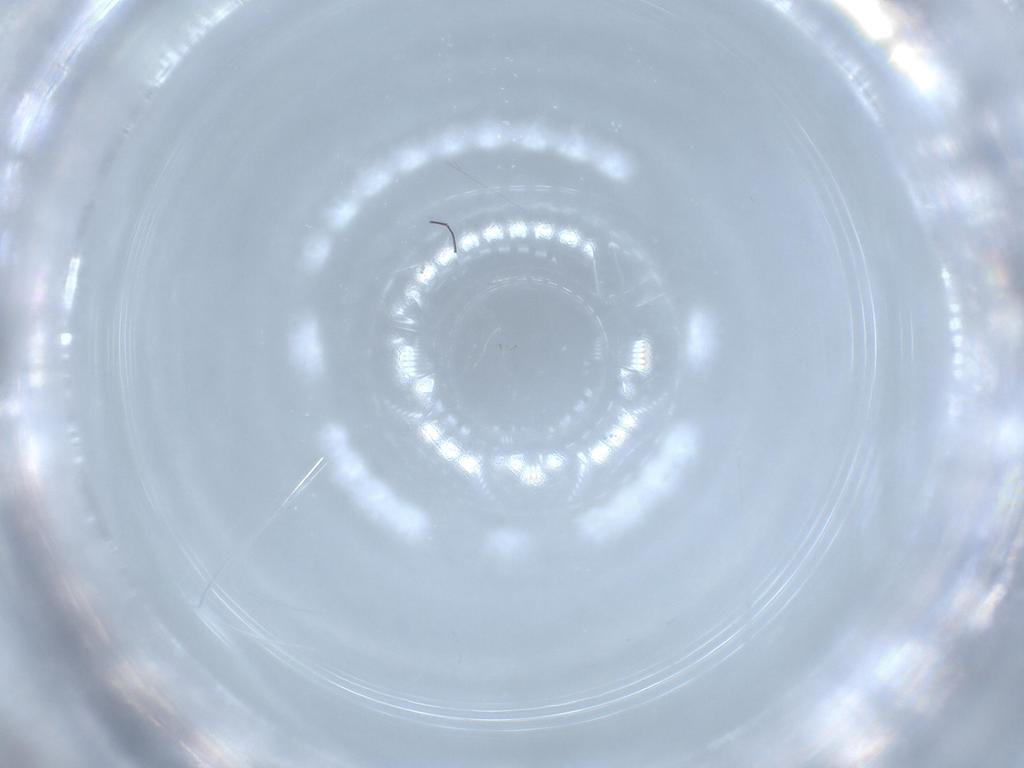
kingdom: Animalia
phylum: Arthropoda
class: Insecta
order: Diptera
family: Cecidomyiidae
